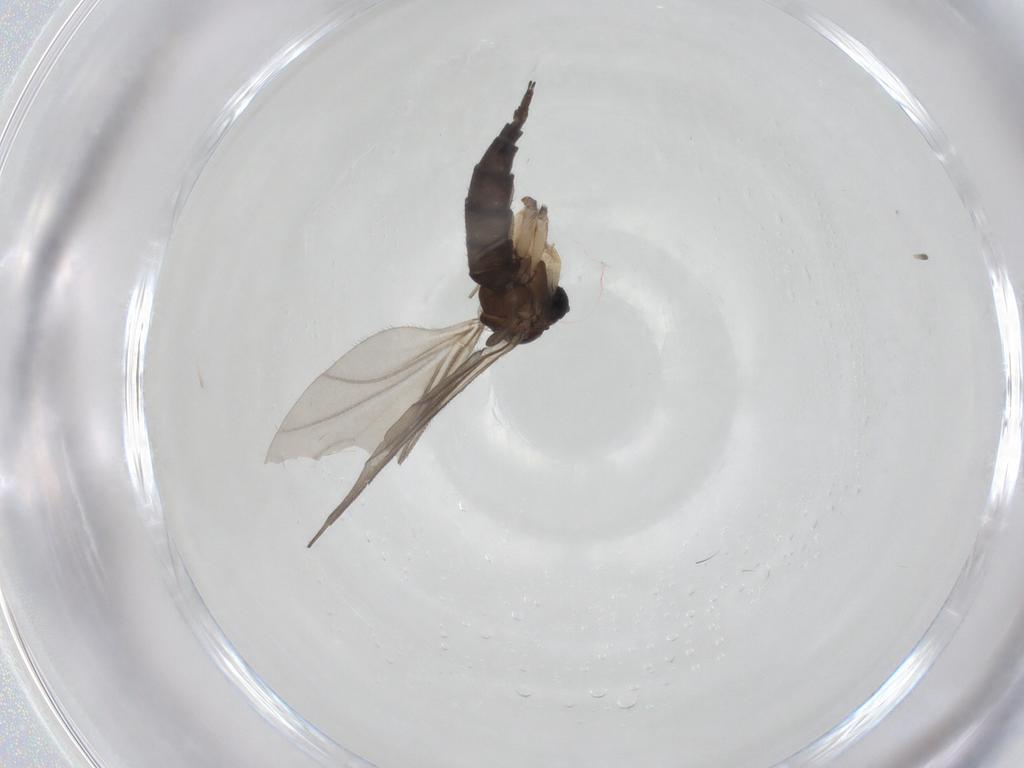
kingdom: Animalia
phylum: Arthropoda
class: Insecta
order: Diptera
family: Sciaridae
